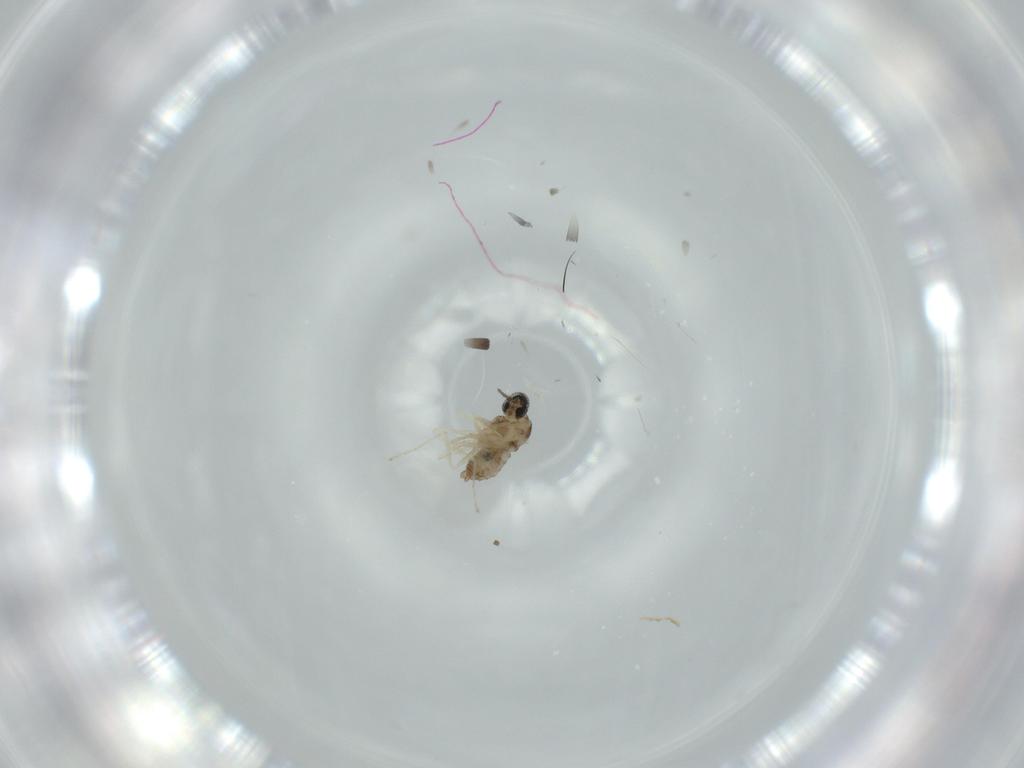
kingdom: Animalia
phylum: Arthropoda
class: Insecta
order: Diptera
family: Cecidomyiidae
